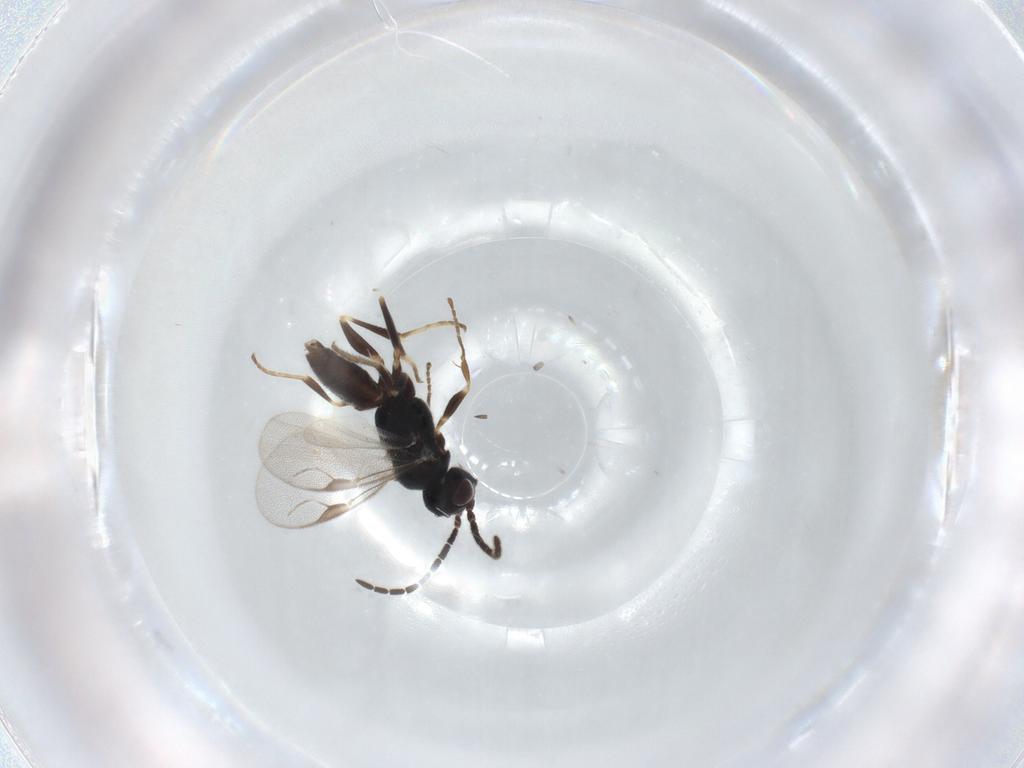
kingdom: Animalia
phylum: Arthropoda
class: Insecta
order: Hymenoptera
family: Dryinidae
